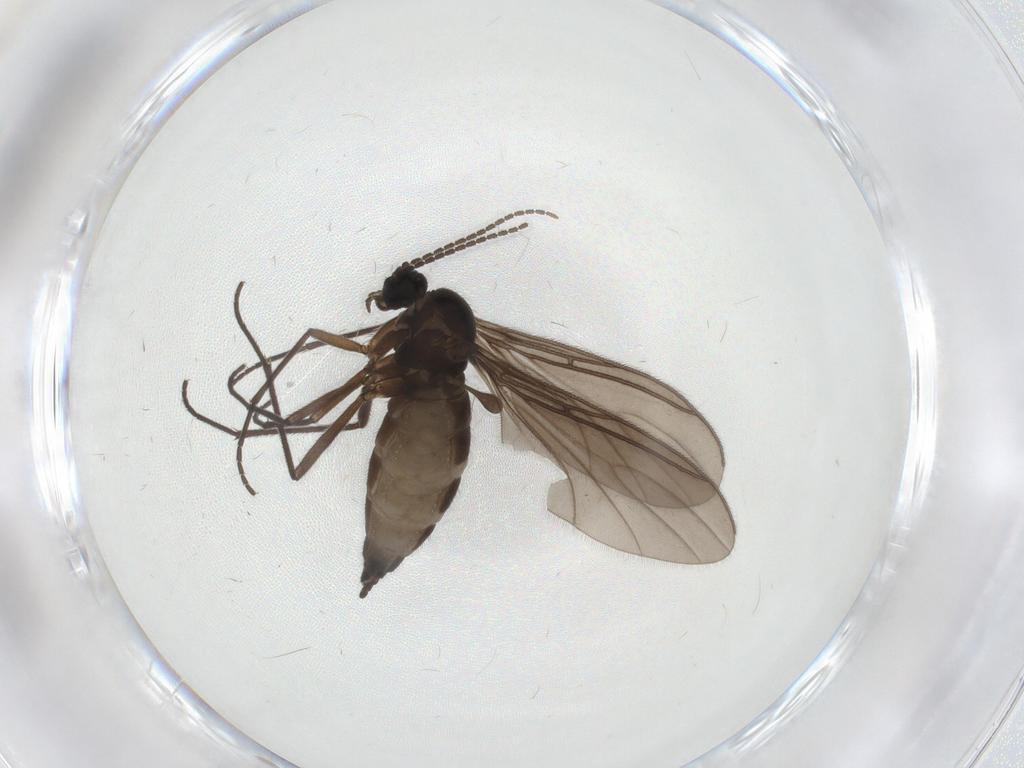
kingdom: Animalia
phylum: Arthropoda
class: Insecta
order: Diptera
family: Sciaridae
